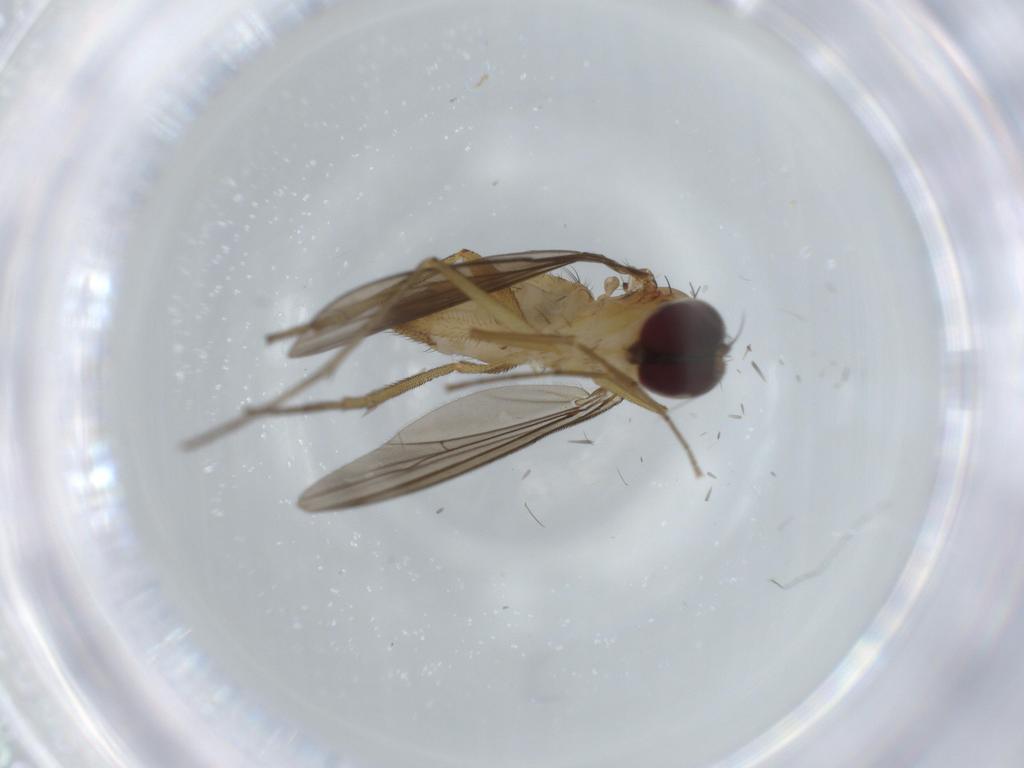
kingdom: Animalia
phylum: Arthropoda
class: Insecta
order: Diptera
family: Dolichopodidae
